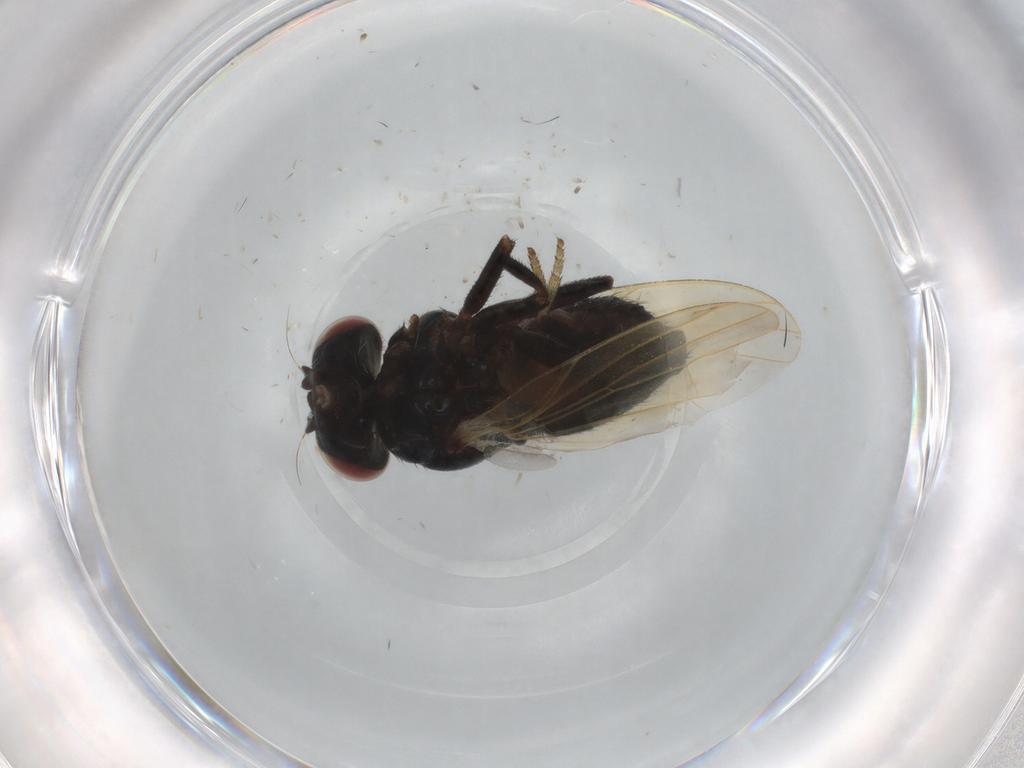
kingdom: Animalia
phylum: Arthropoda
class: Insecta
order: Diptera
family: Lonchaeidae
